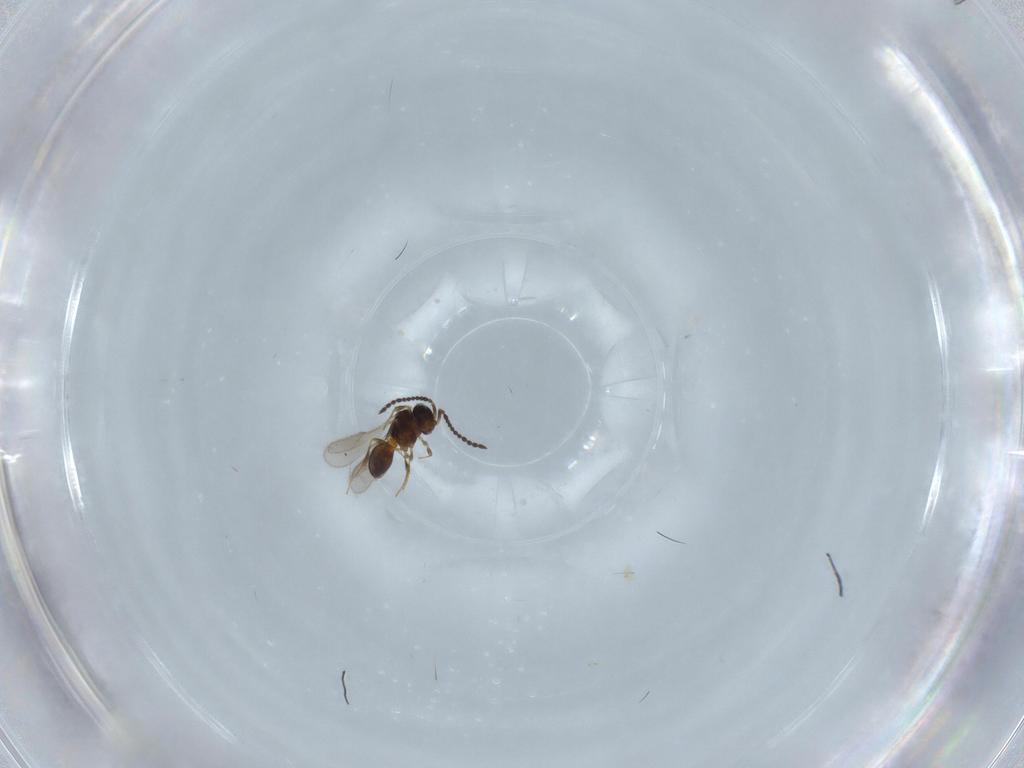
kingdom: Animalia
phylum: Arthropoda
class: Insecta
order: Hymenoptera
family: Scelionidae
